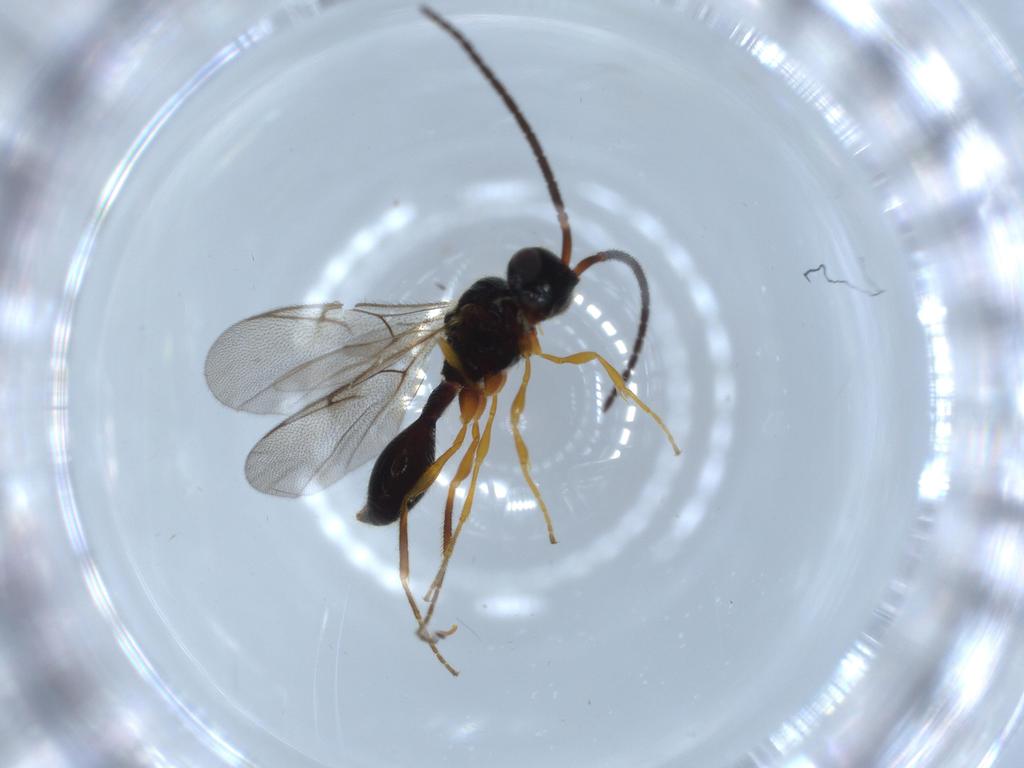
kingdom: Animalia
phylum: Arthropoda
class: Insecta
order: Hymenoptera
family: Diapriidae
